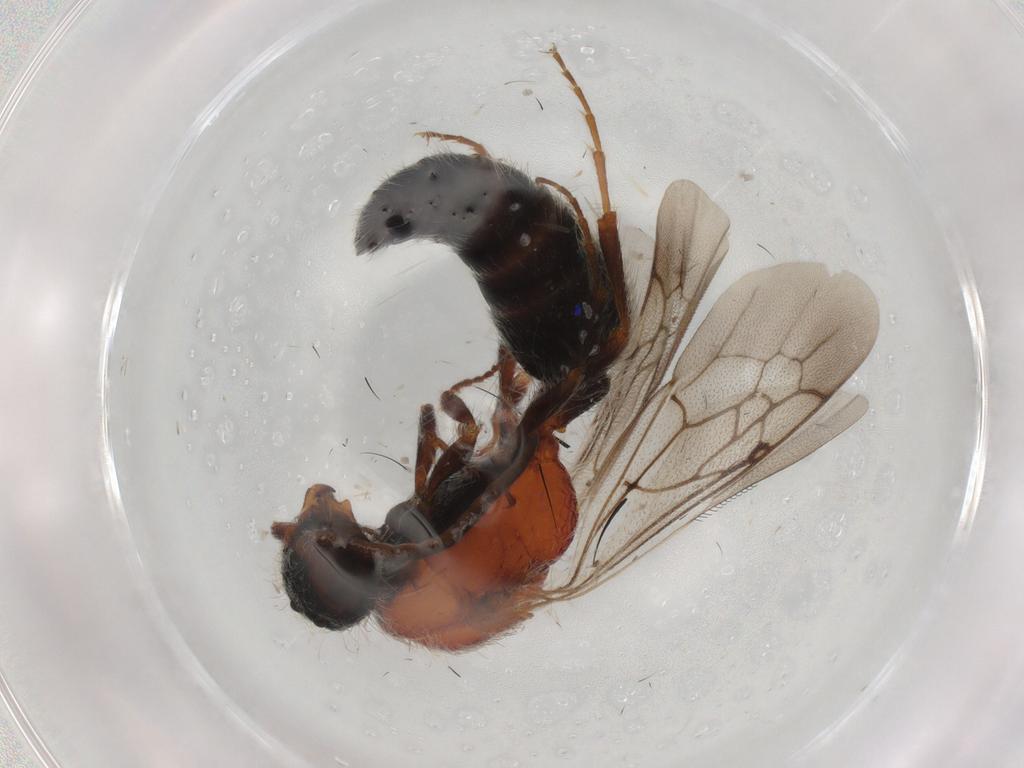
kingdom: Animalia
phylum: Arthropoda
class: Insecta
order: Hymenoptera
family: Mutillidae
